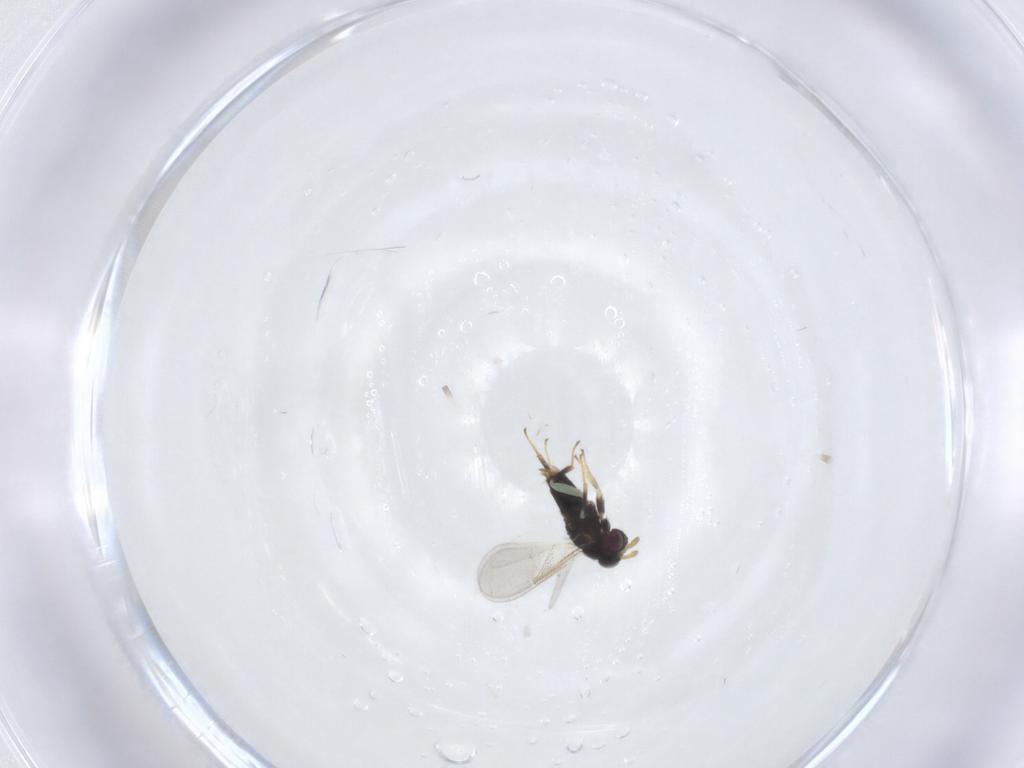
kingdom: Animalia
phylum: Arthropoda
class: Insecta
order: Hymenoptera
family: Aphelinidae
